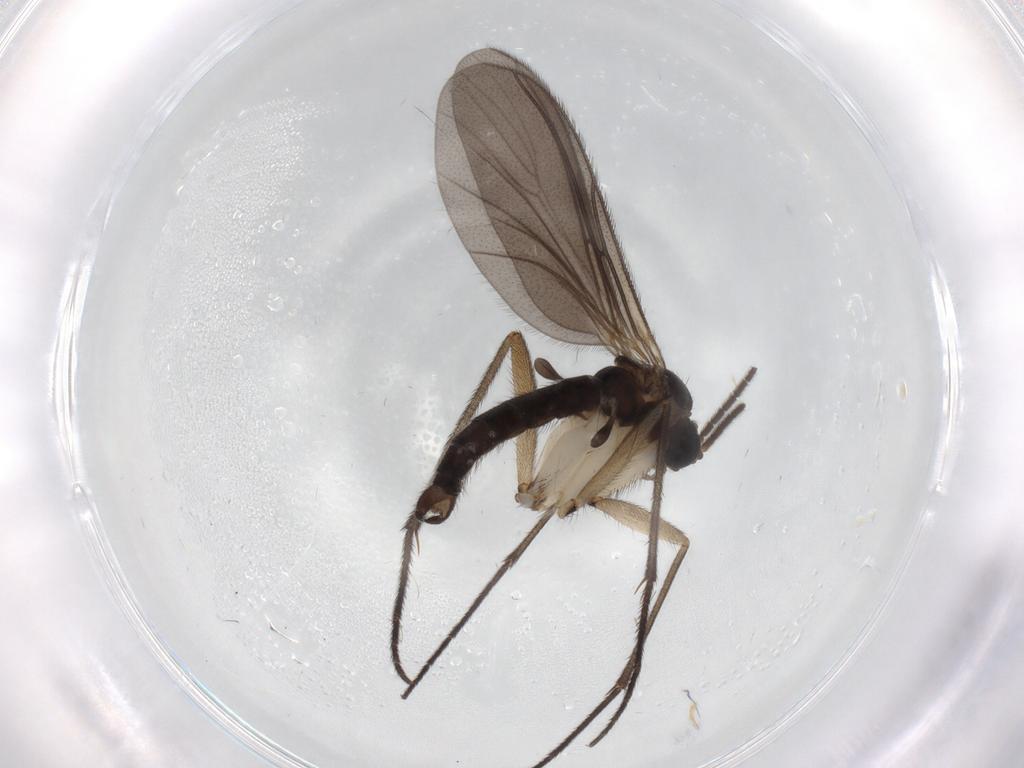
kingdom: Animalia
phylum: Arthropoda
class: Insecta
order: Diptera
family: Sciaridae
